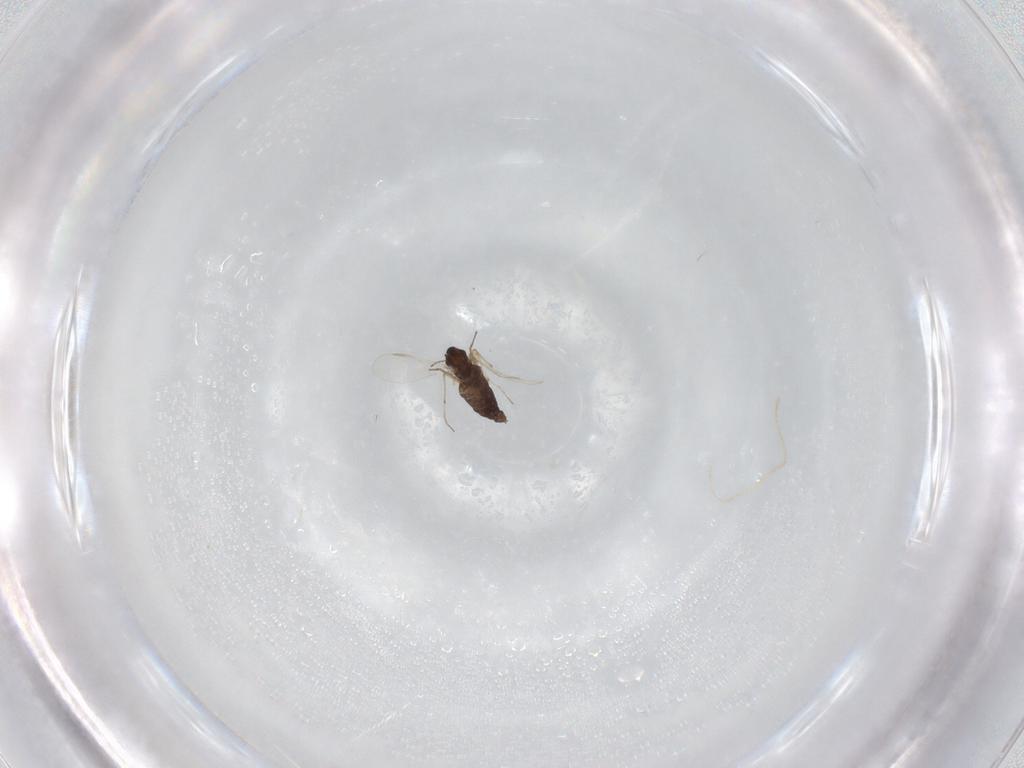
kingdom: Animalia
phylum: Arthropoda
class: Insecta
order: Diptera
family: Chironomidae
